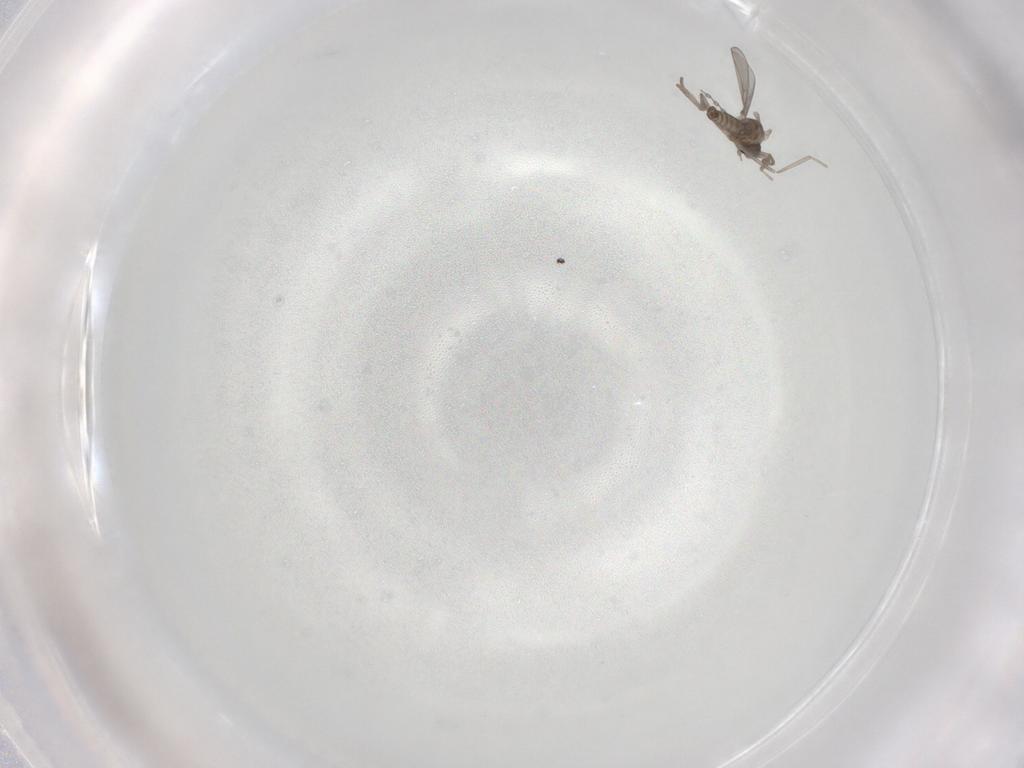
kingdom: Animalia
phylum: Arthropoda
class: Insecta
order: Diptera
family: Cecidomyiidae
